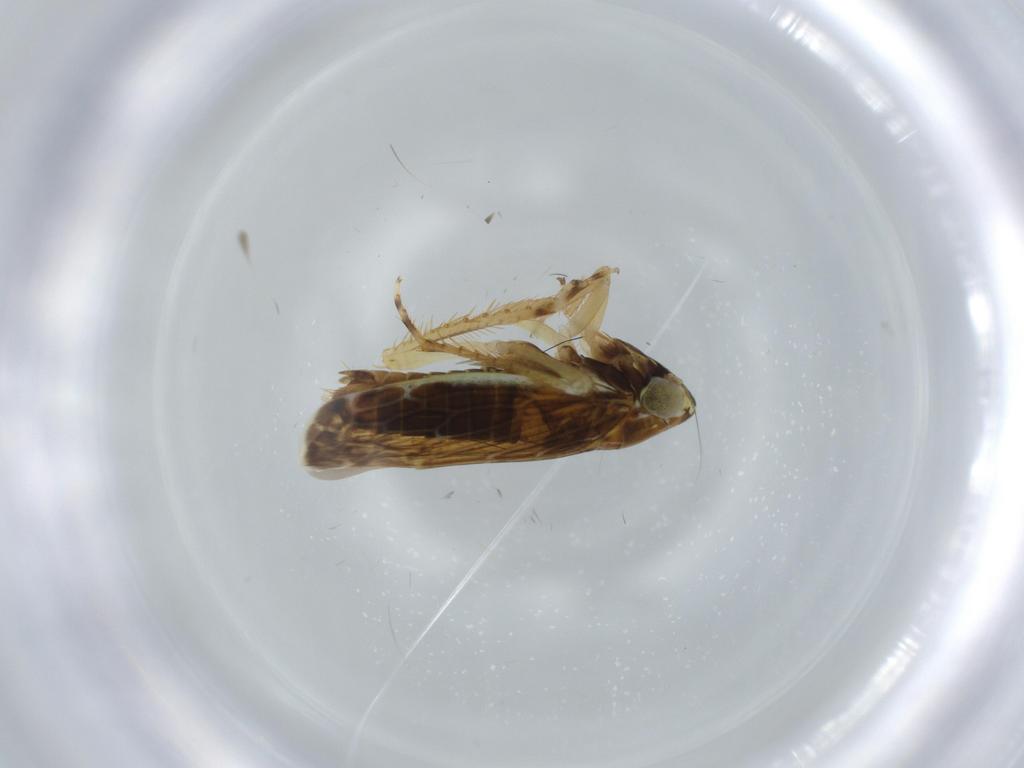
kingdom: Animalia
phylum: Arthropoda
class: Insecta
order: Hemiptera
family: Cicadellidae
